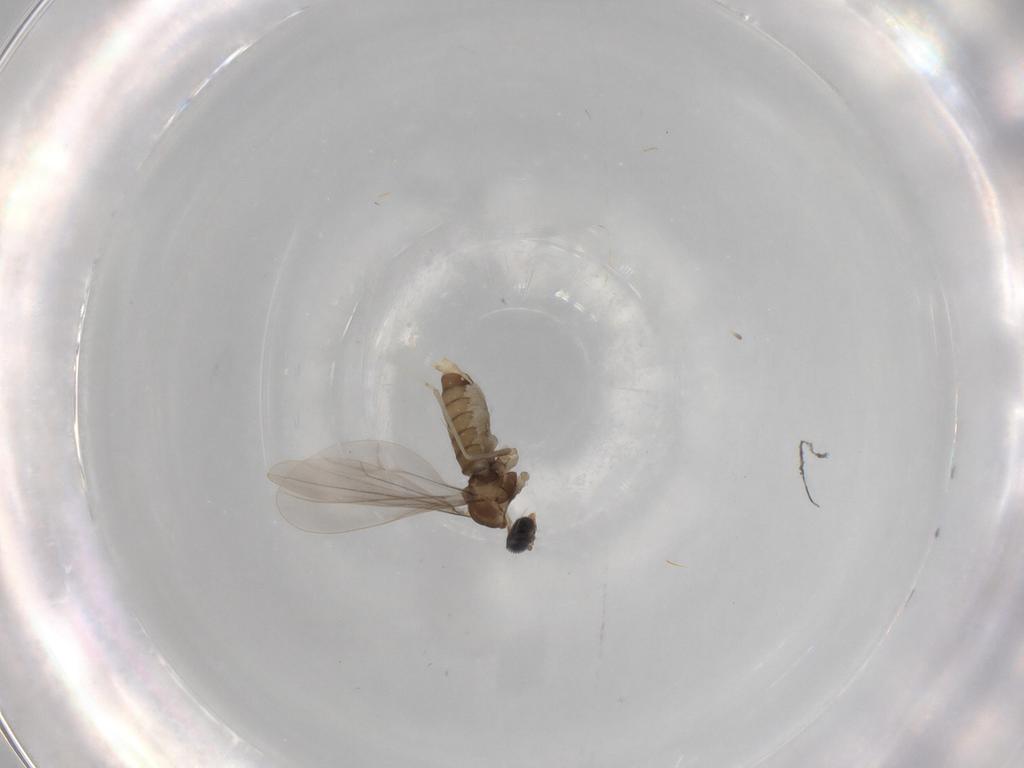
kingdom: Animalia
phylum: Arthropoda
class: Insecta
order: Diptera
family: Cecidomyiidae
